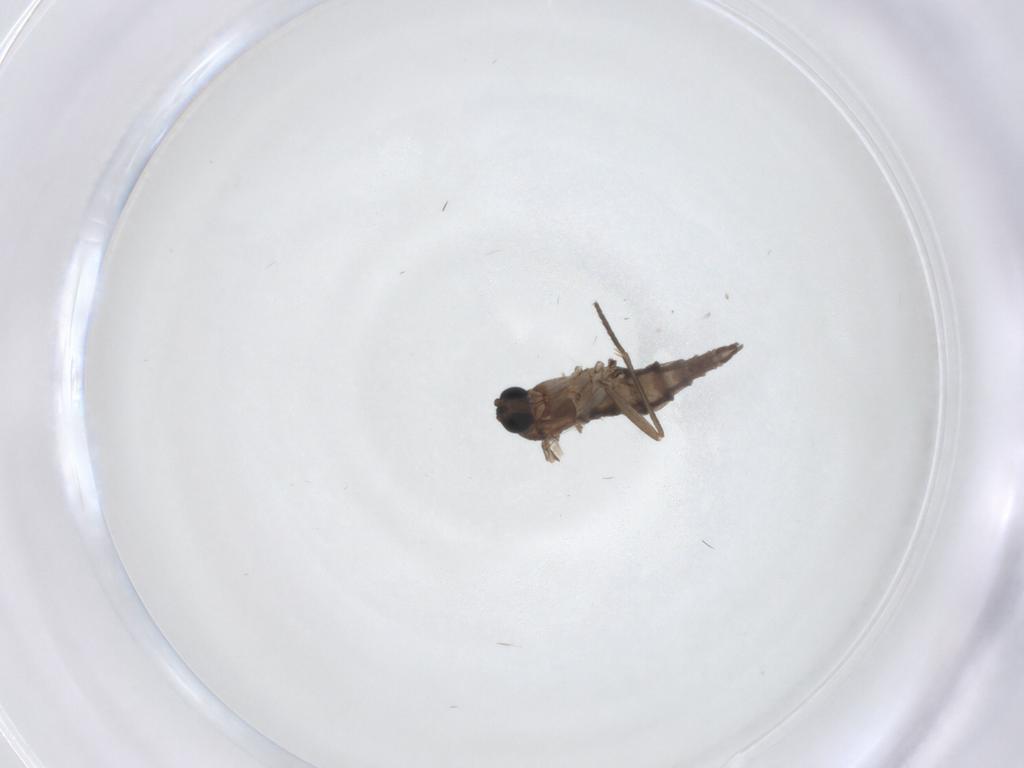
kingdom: Animalia
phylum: Arthropoda
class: Insecta
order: Diptera
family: Sciaridae
